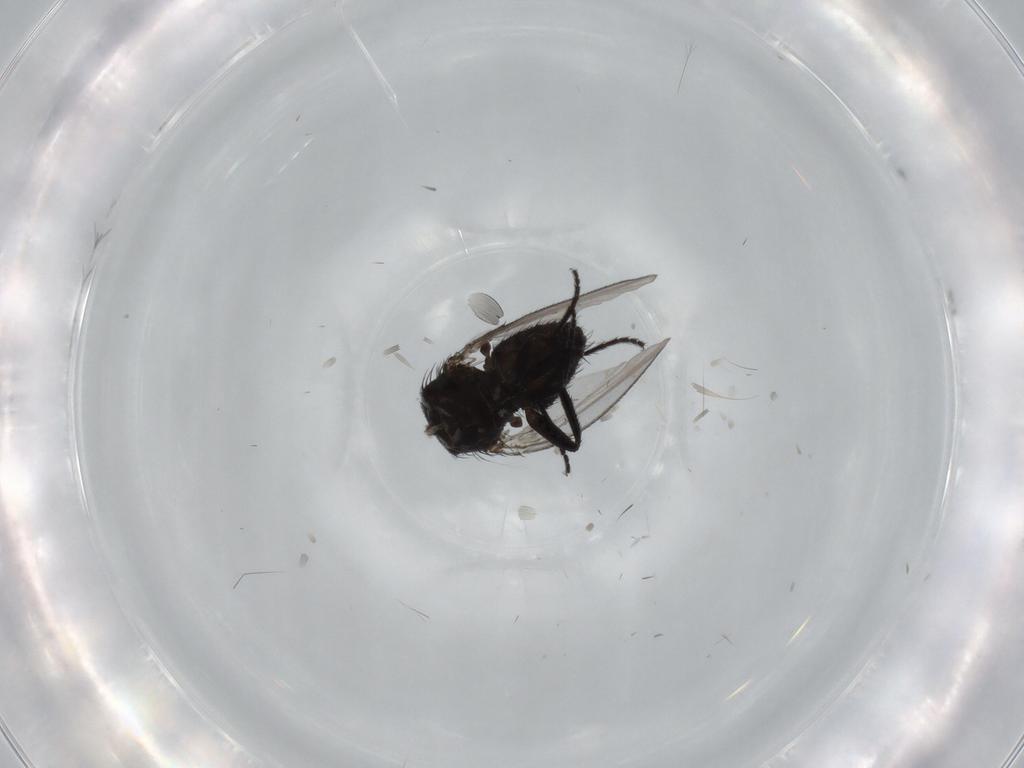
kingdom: Animalia
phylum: Arthropoda
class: Insecta
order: Diptera
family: Milichiidae
